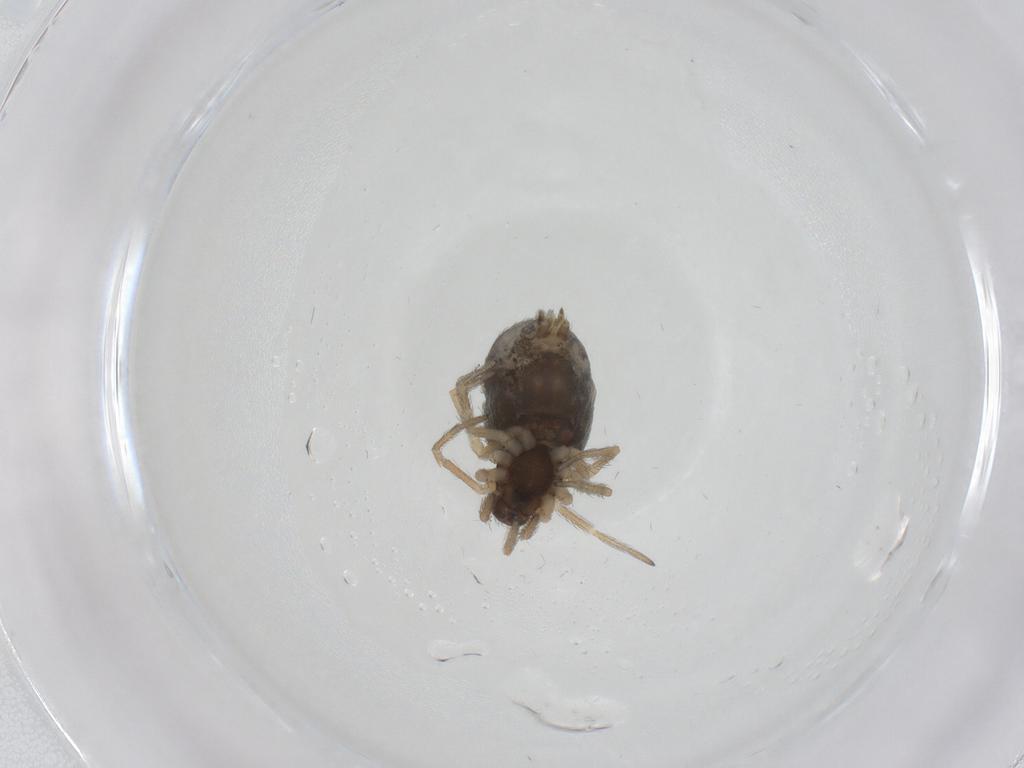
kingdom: Animalia
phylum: Arthropoda
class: Arachnida
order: Araneae
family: Dictynidae
